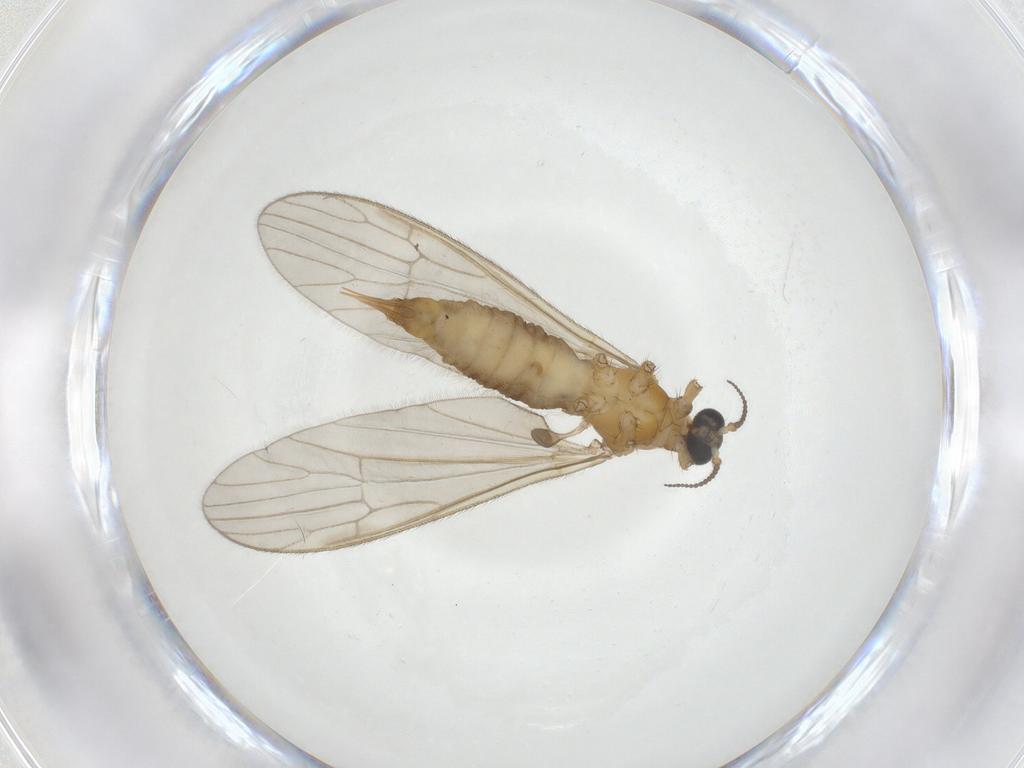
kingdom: Animalia
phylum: Arthropoda
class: Insecta
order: Diptera
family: Limoniidae
